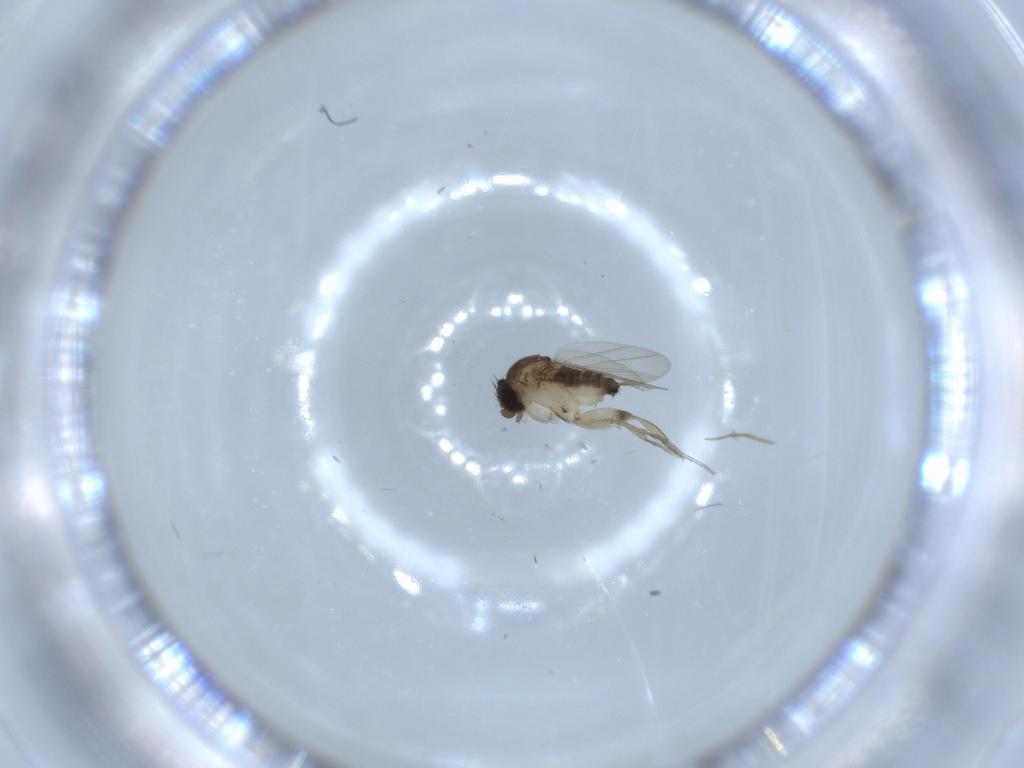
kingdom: Animalia
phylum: Arthropoda
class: Insecta
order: Diptera
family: Phoridae
